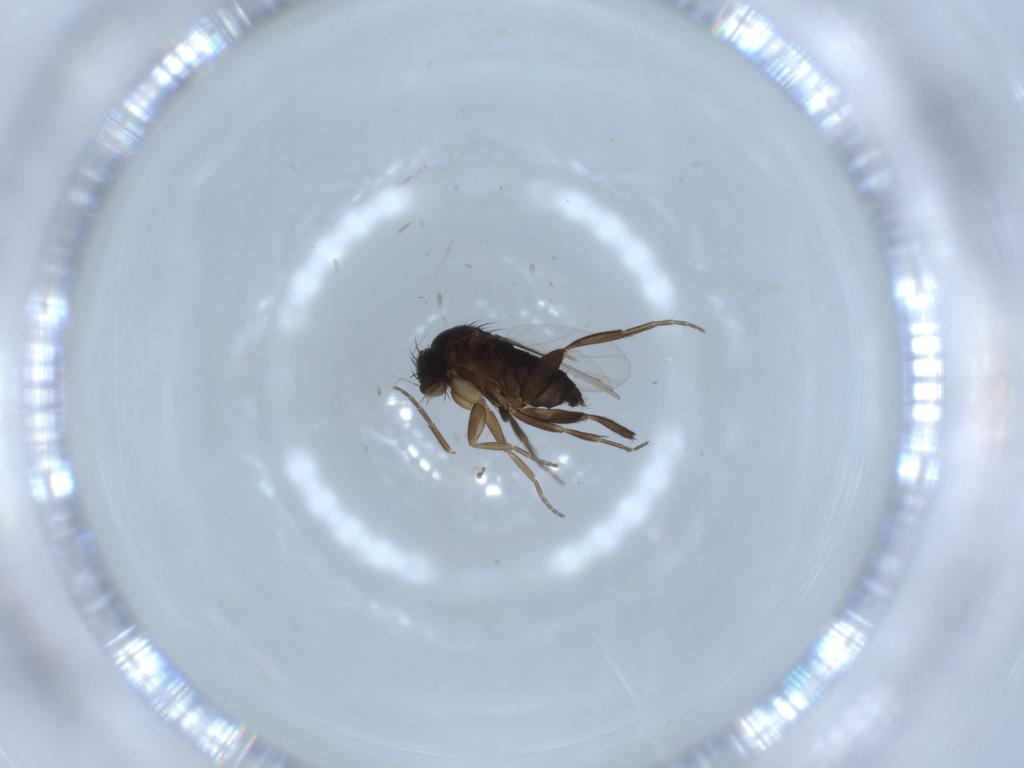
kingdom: Animalia
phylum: Arthropoda
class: Insecta
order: Diptera
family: Phoridae
